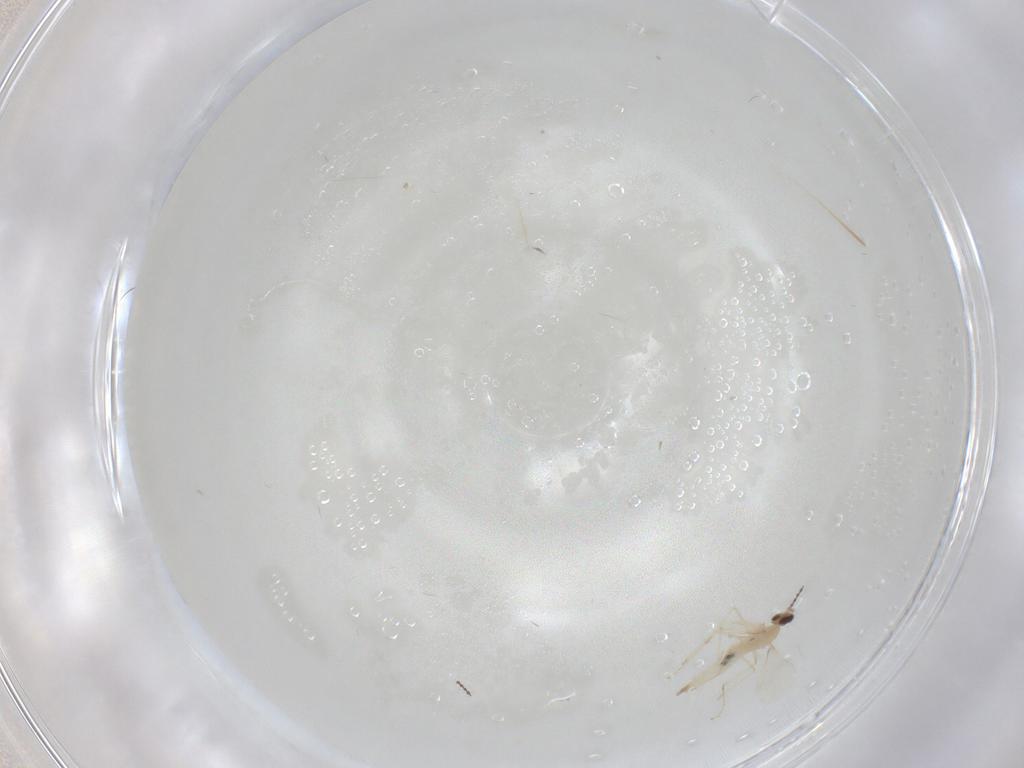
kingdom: Animalia
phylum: Arthropoda
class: Insecta
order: Diptera
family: Cecidomyiidae
